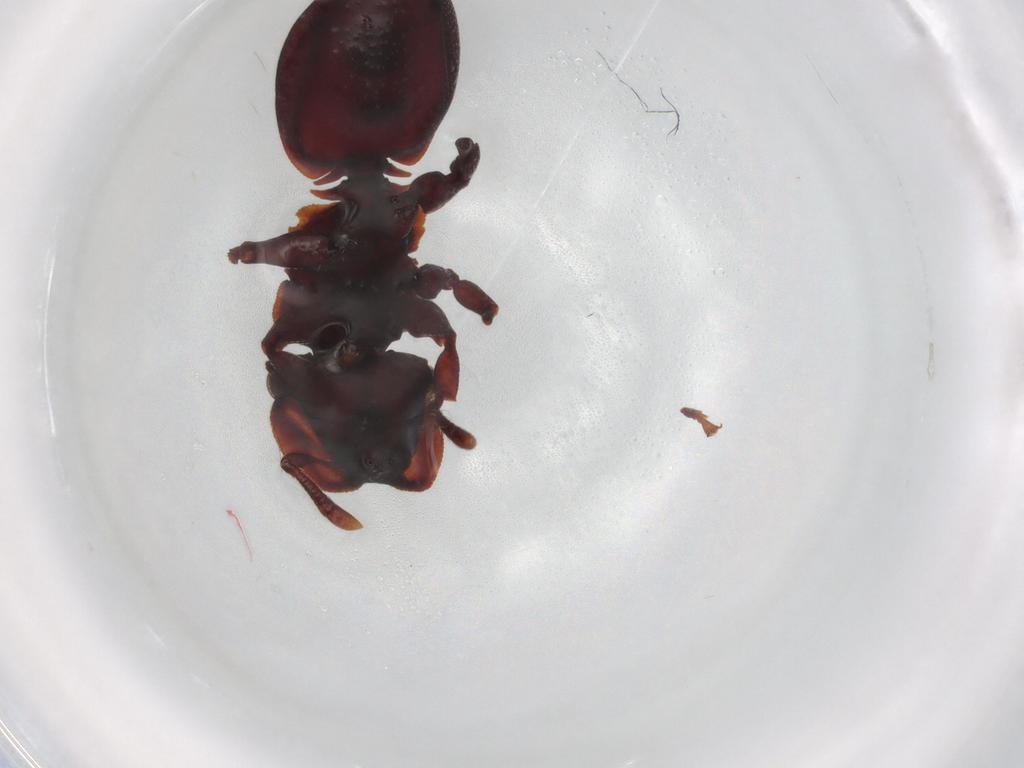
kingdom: Animalia
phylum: Arthropoda
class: Insecta
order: Hymenoptera
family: Formicidae
